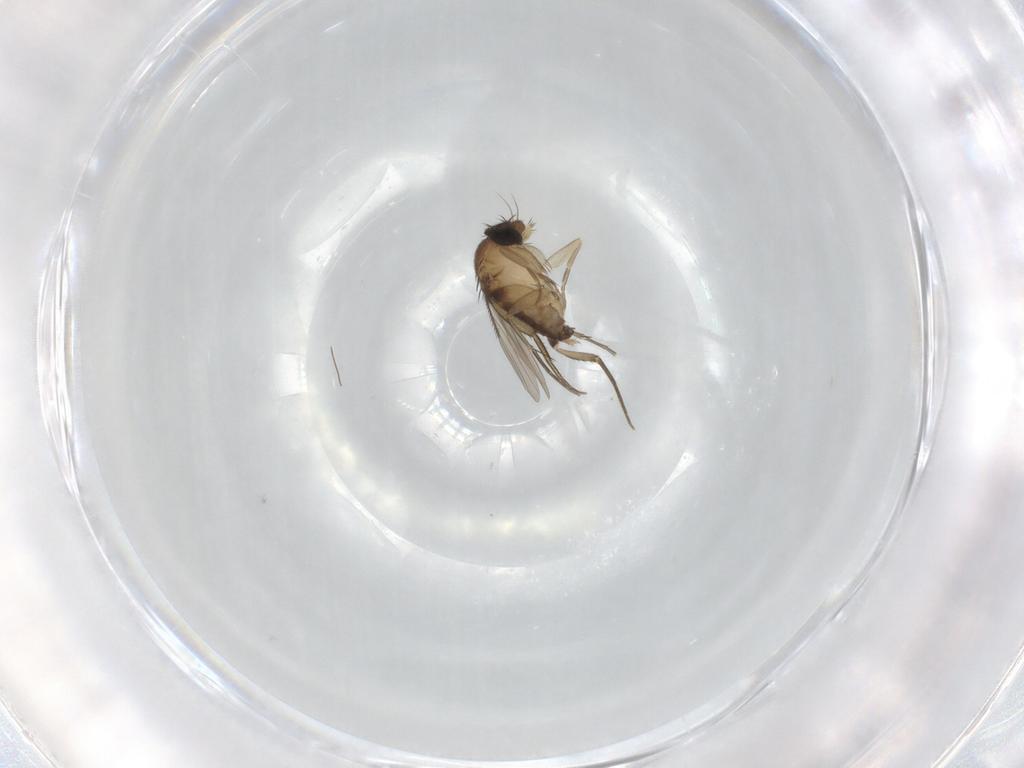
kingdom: Animalia
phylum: Arthropoda
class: Insecta
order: Diptera
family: Phoridae
